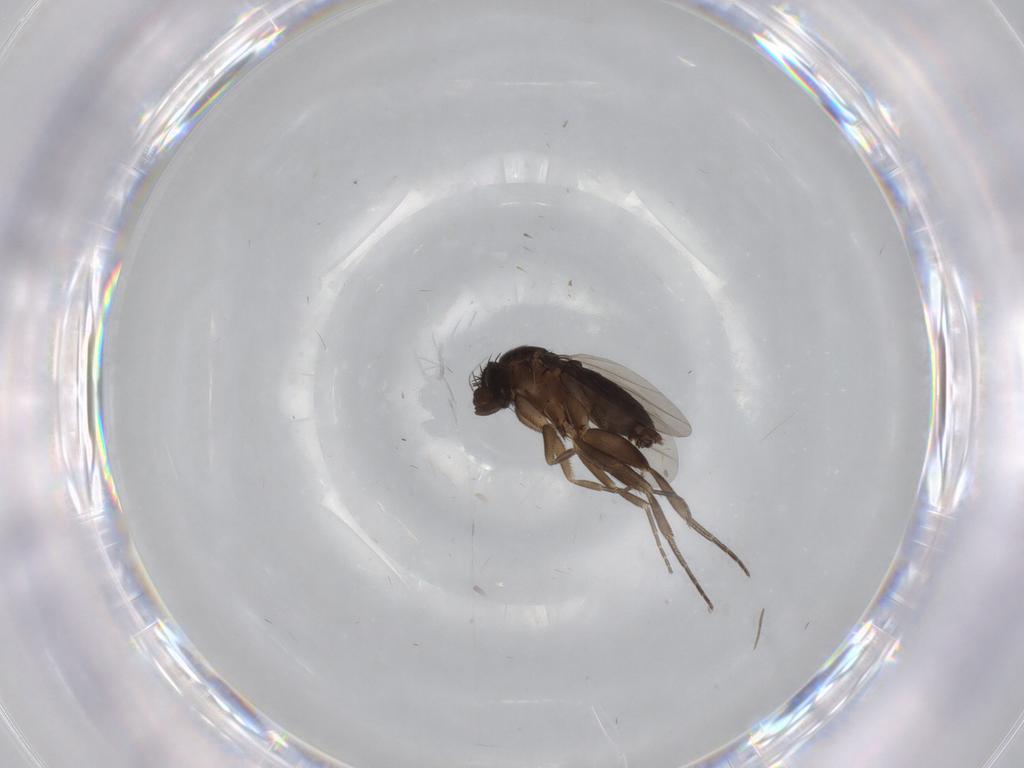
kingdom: Animalia
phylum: Arthropoda
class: Insecta
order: Diptera
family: Phoridae
